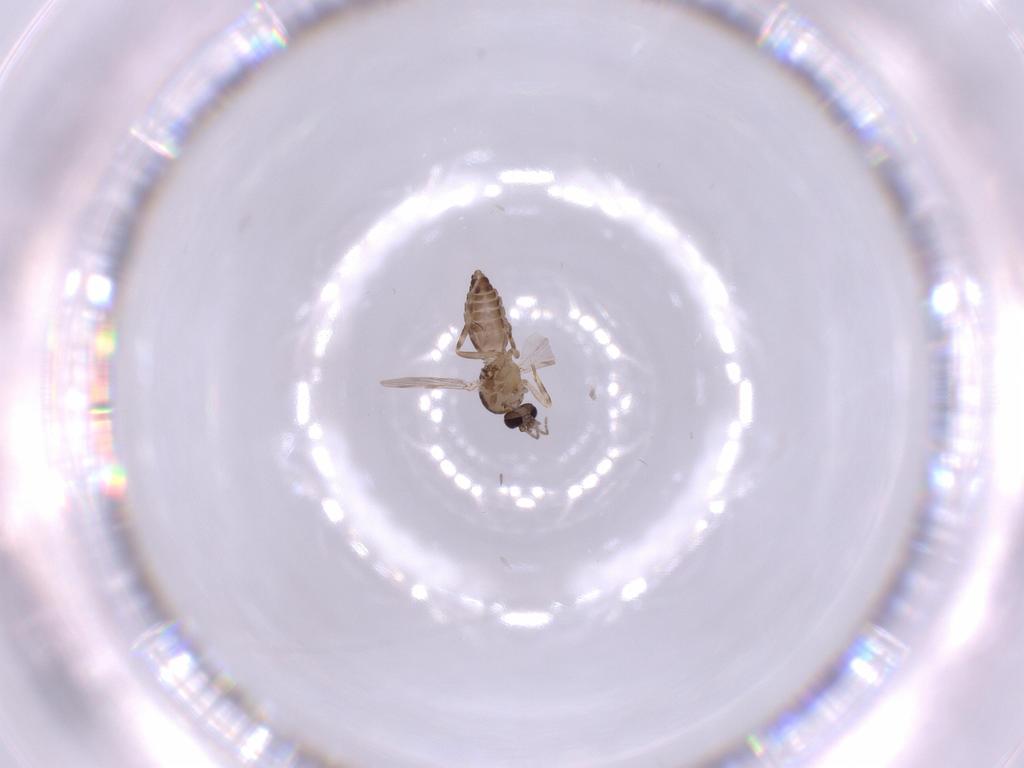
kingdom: Animalia
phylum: Arthropoda
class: Insecta
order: Diptera
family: Ceratopogonidae
